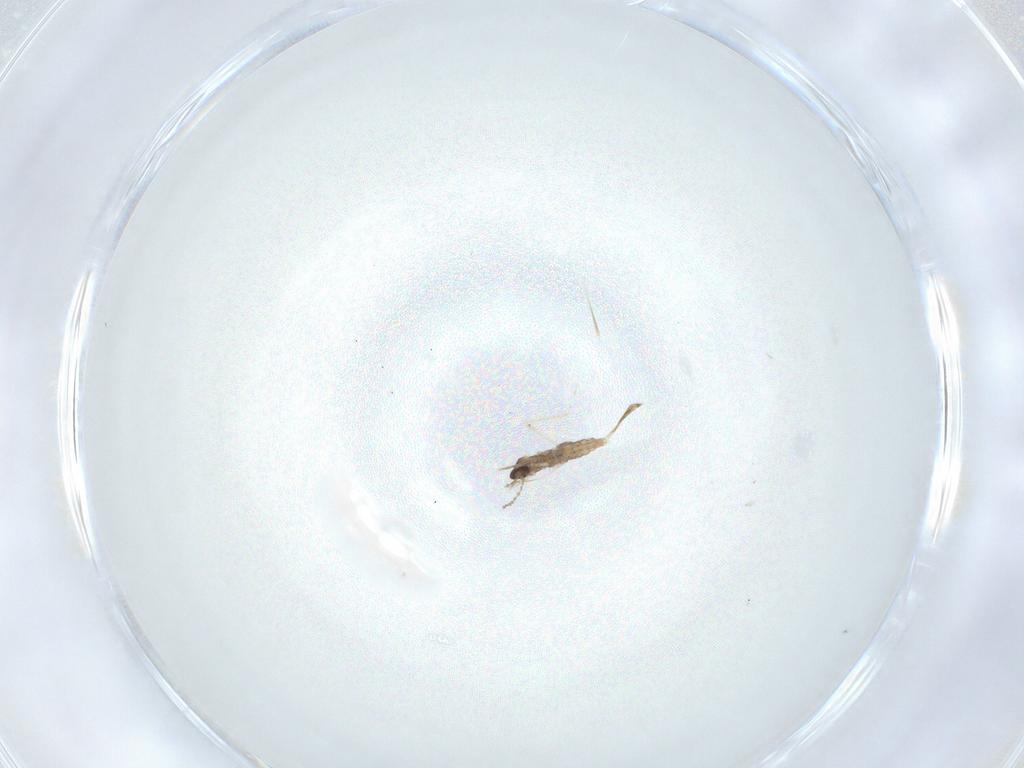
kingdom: Animalia
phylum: Arthropoda
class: Insecta
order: Diptera
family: Cecidomyiidae
